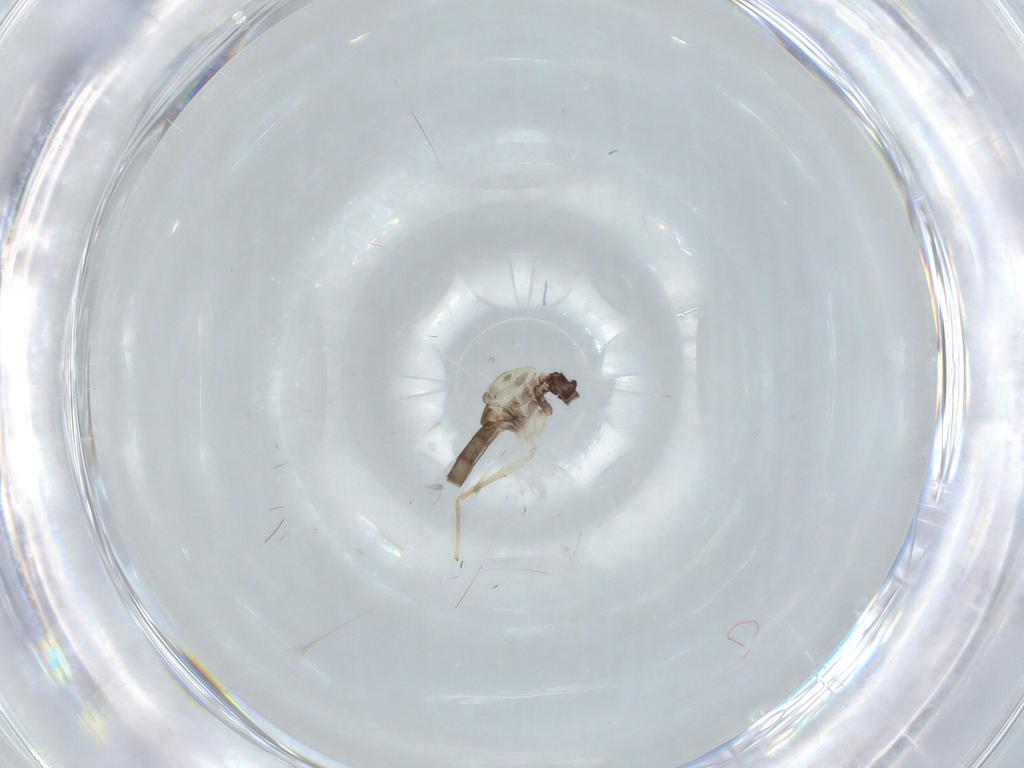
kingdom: Animalia
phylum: Arthropoda
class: Insecta
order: Diptera
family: Chironomidae
